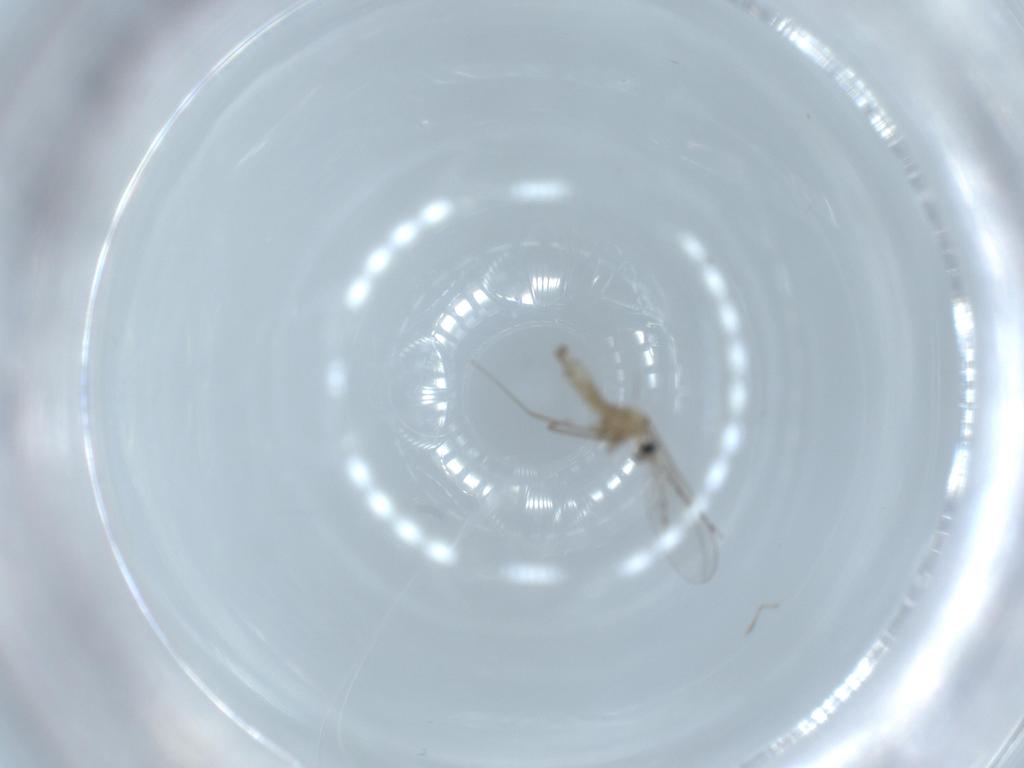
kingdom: Animalia
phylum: Arthropoda
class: Insecta
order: Diptera
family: Cecidomyiidae
